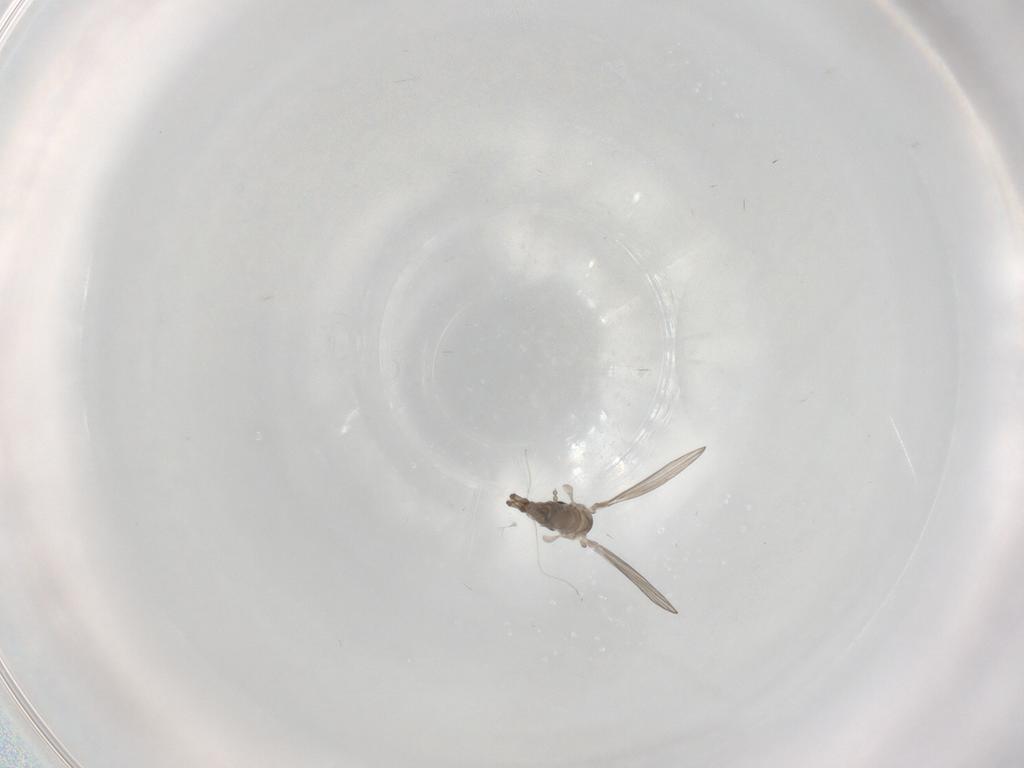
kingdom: Animalia
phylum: Arthropoda
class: Insecta
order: Diptera
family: Psychodidae
